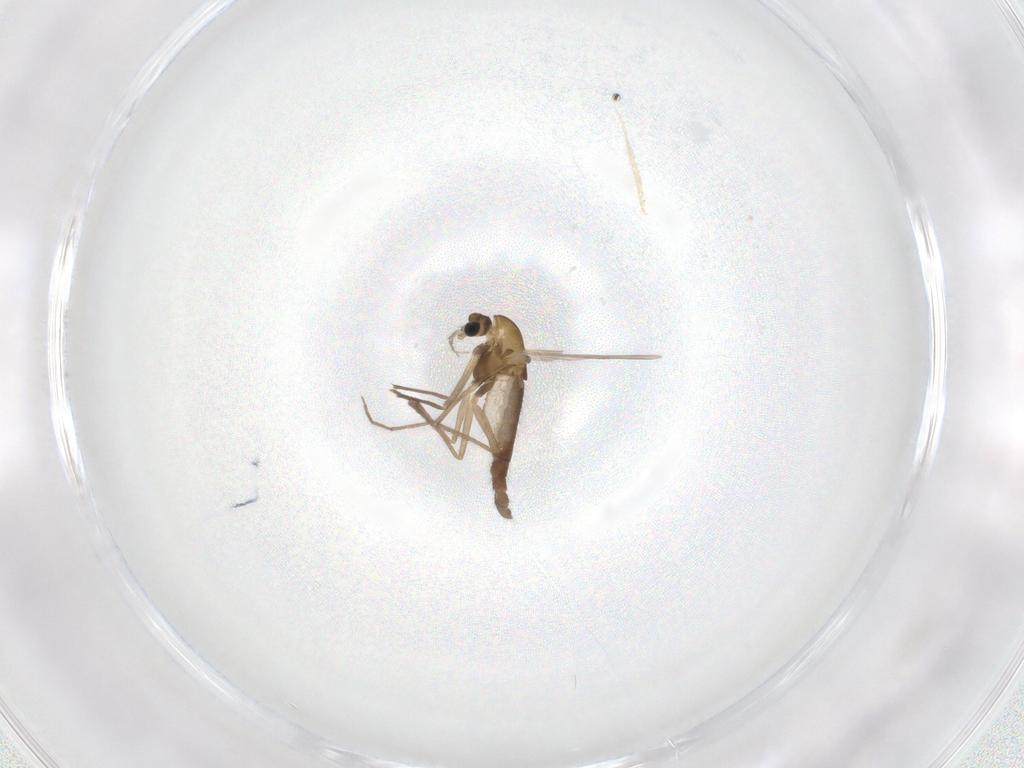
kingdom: Animalia
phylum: Arthropoda
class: Insecta
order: Diptera
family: Chironomidae
